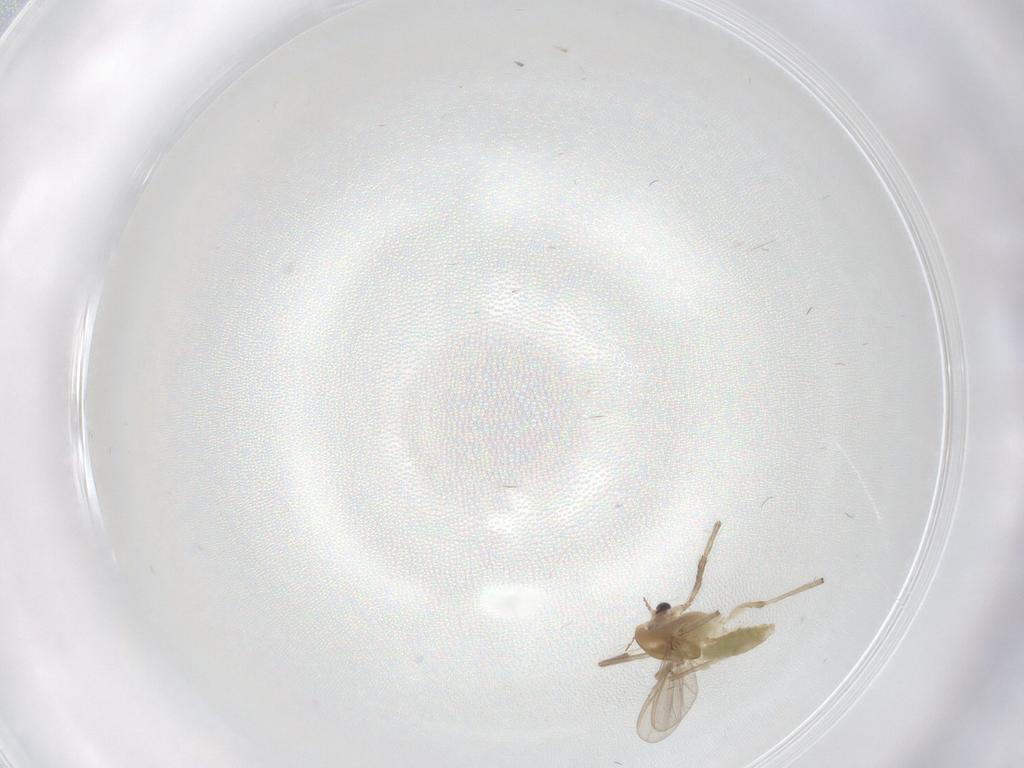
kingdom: Animalia
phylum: Arthropoda
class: Insecta
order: Diptera
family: Chironomidae
